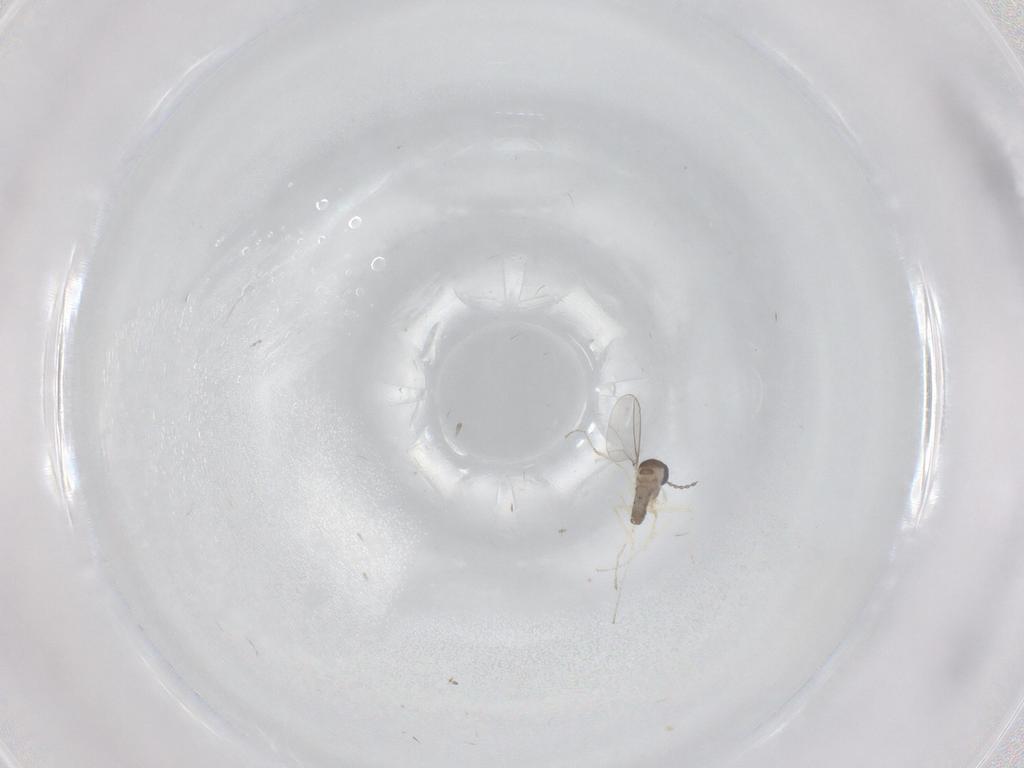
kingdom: Animalia
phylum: Arthropoda
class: Insecta
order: Diptera
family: Cecidomyiidae
